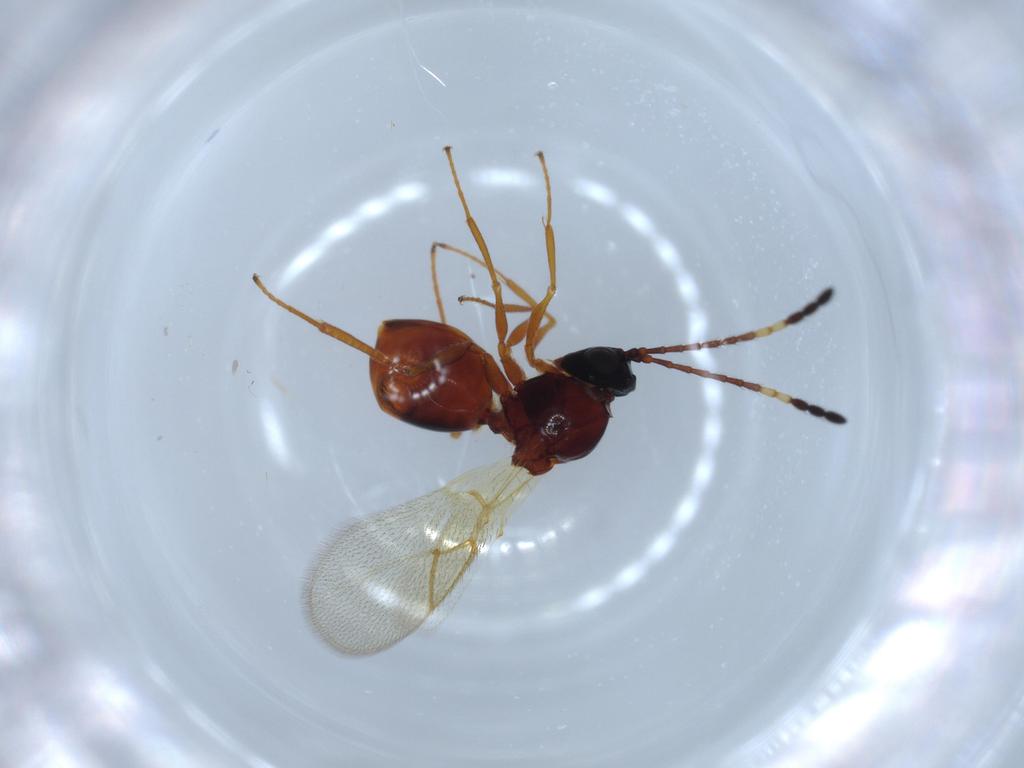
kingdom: Animalia
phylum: Arthropoda
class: Insecta
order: Hymenoptera
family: Figitidae
